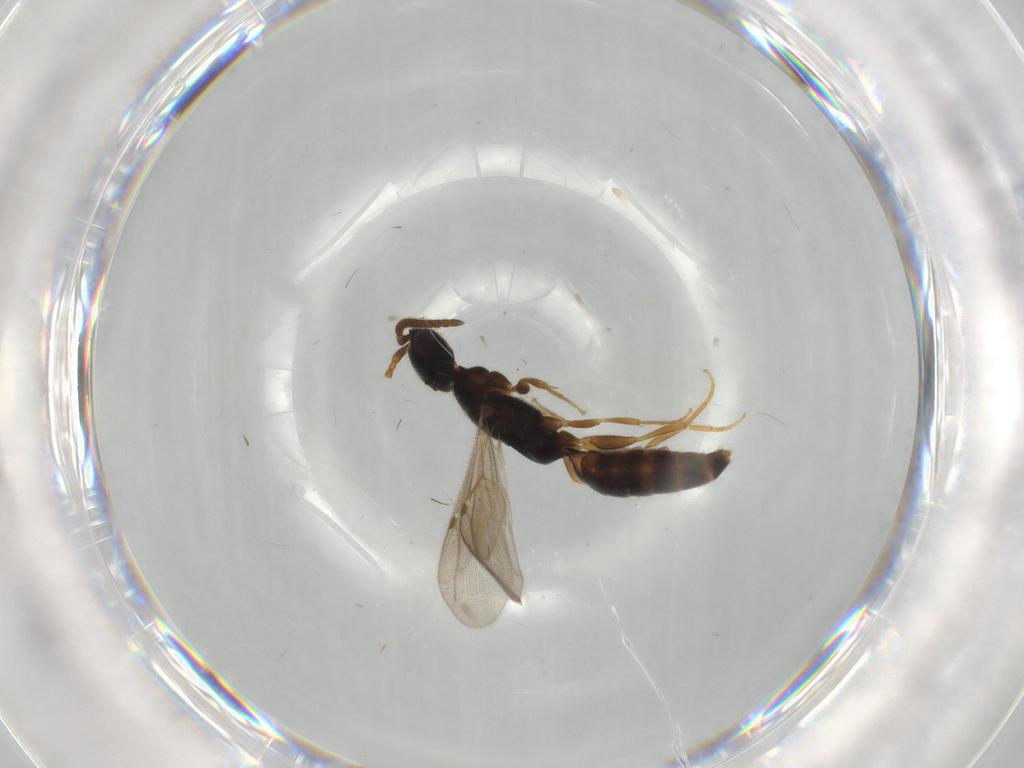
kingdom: Animalia
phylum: Arthropoda
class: Insecta
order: Hymenoptera
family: Bethylidae
